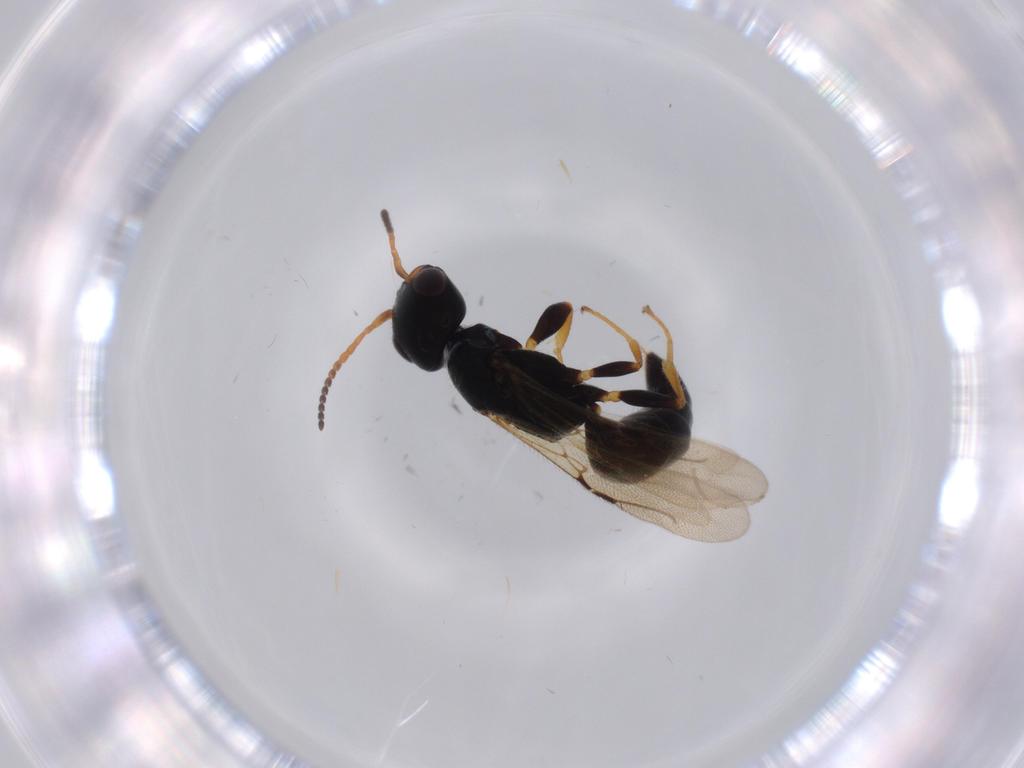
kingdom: Animalia
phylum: Arthropoda
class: Insecta
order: Hymenoptera
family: Bethylidae
